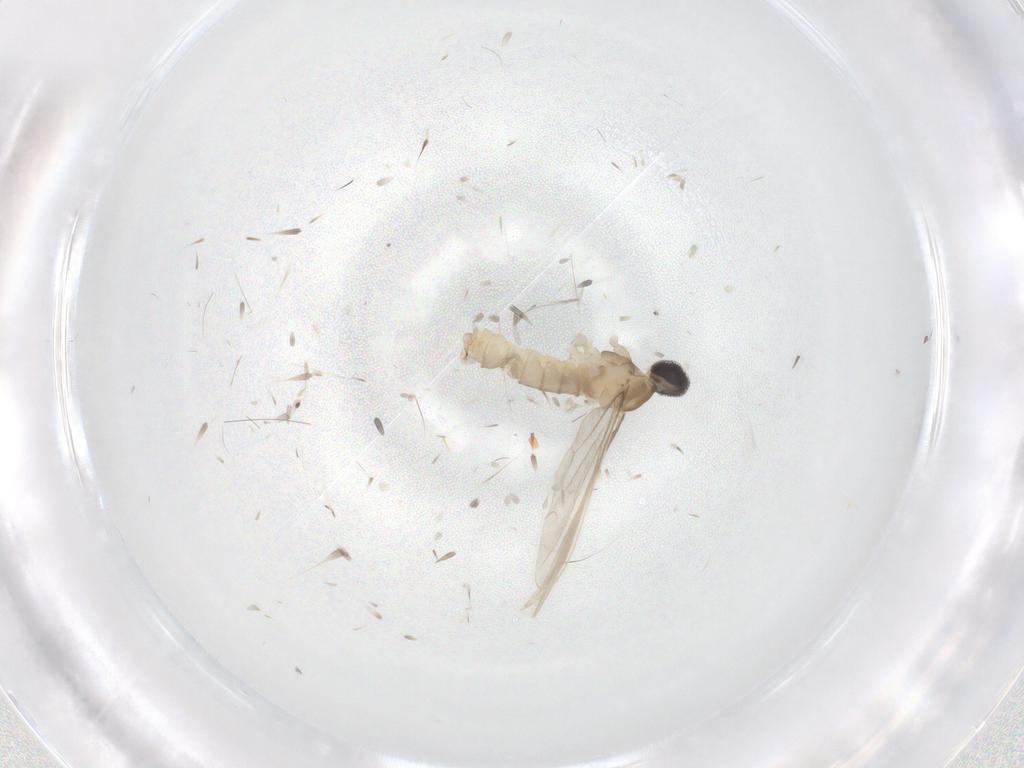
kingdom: Animalia
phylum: Arthropoda
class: Insecta
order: Diptera
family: Cecidomyiidae
